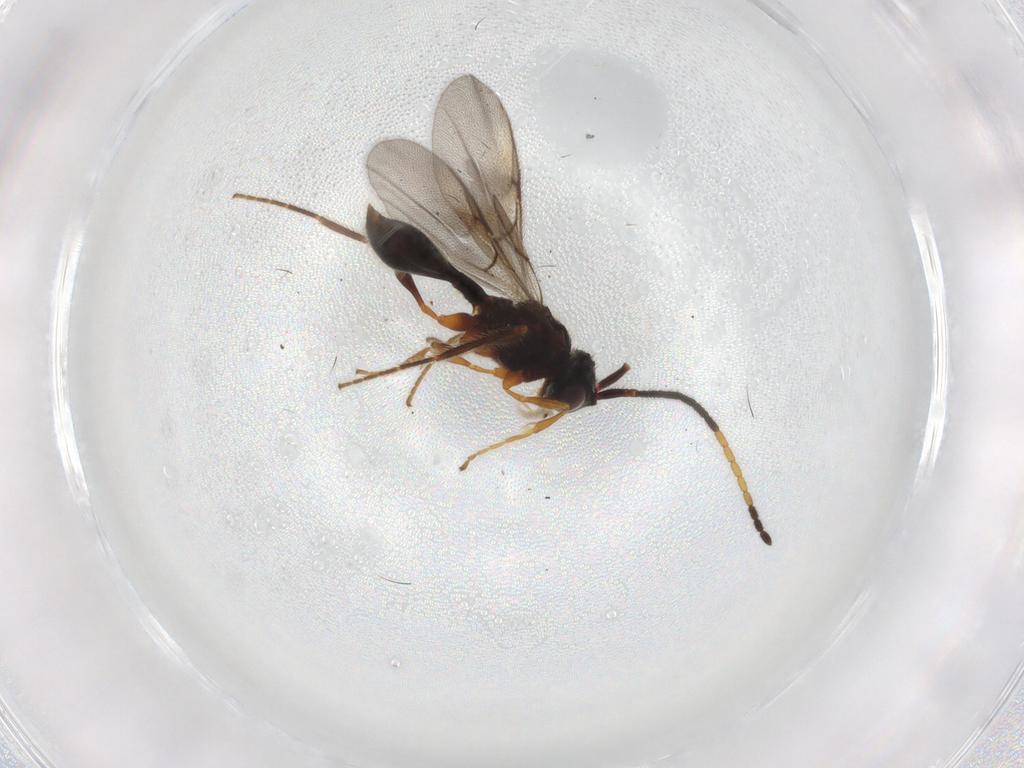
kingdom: Animalia
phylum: Arthropoda
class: Insecta
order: Hymenoptera
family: Diapriidae
